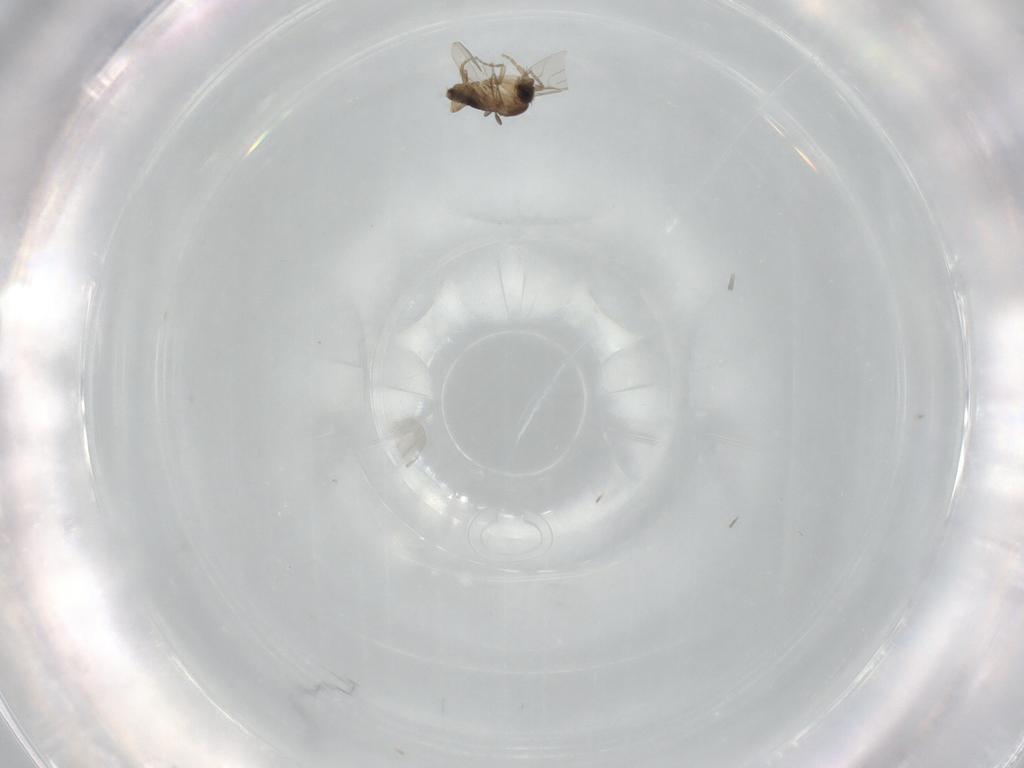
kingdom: Animalia
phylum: Arthropoda
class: Insecta
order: Diptera
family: Phoridae
